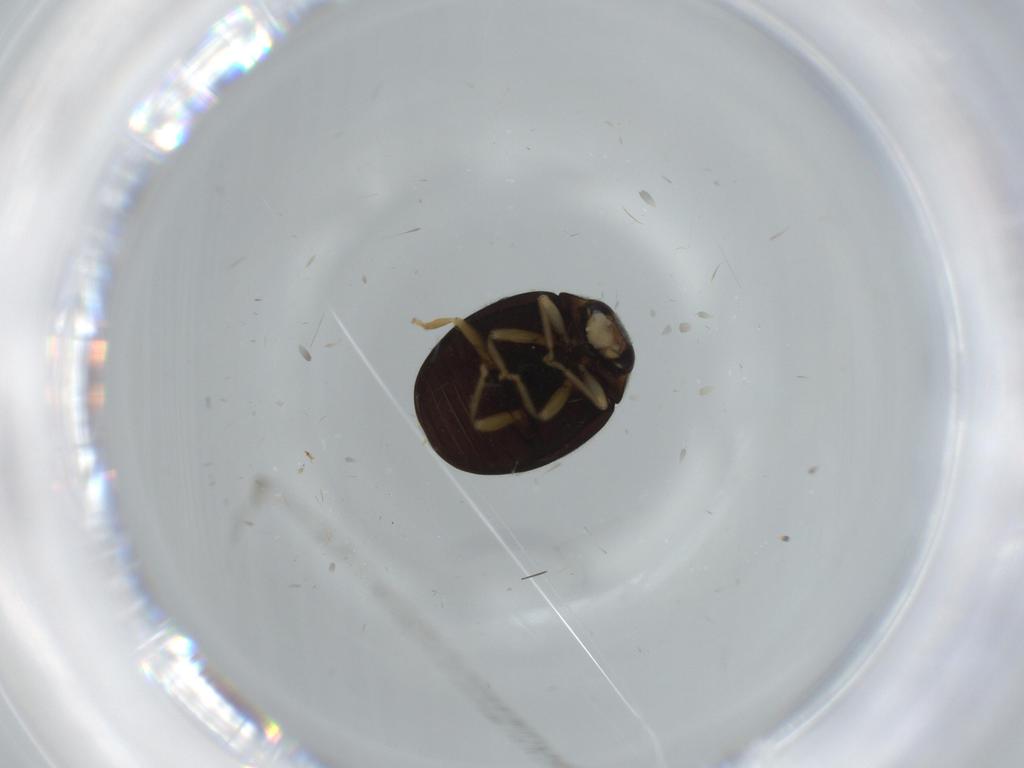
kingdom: Animalia
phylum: Arthropoda
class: Insecta
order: Coleoptera
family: Coccinellidae
